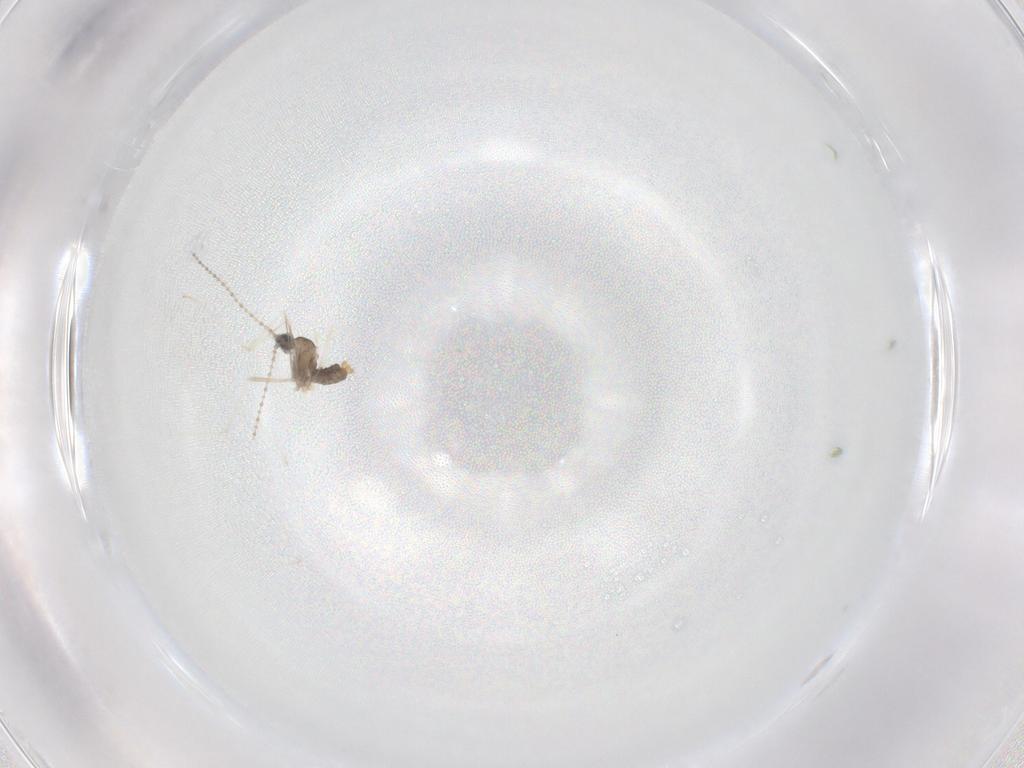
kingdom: Animalia
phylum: Arthropoda
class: Insecta
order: Diptera
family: Cecidomyiidae
